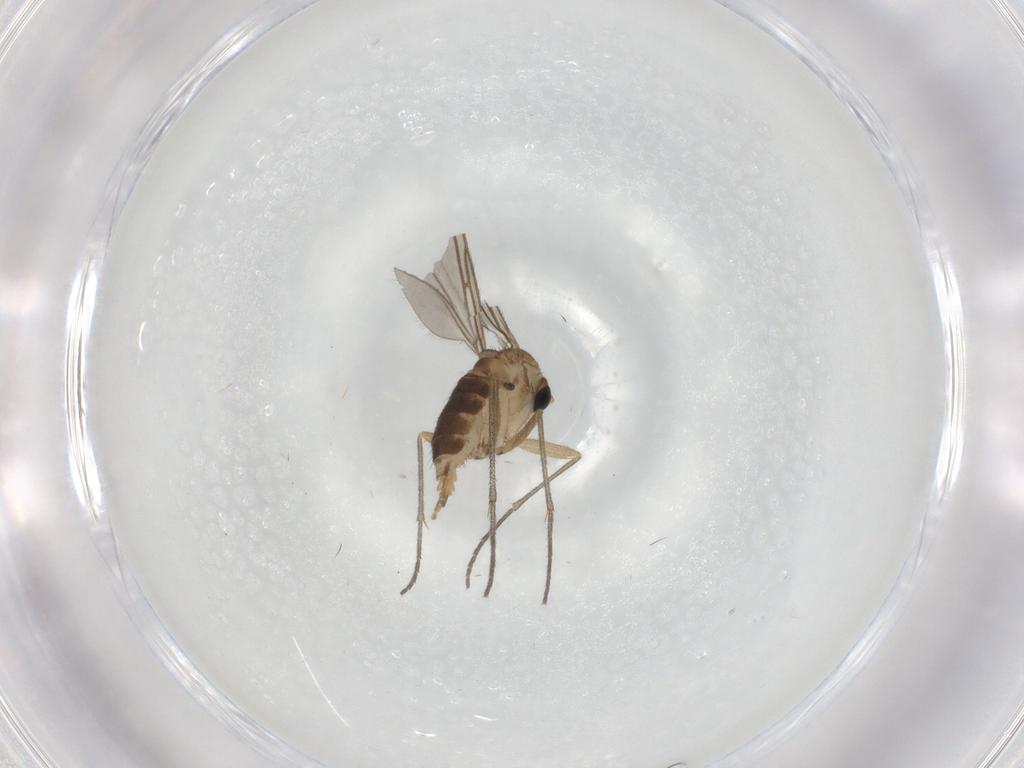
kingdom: Animalia
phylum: Arthropoda
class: Insecta
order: Diptera
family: Sciaridae
